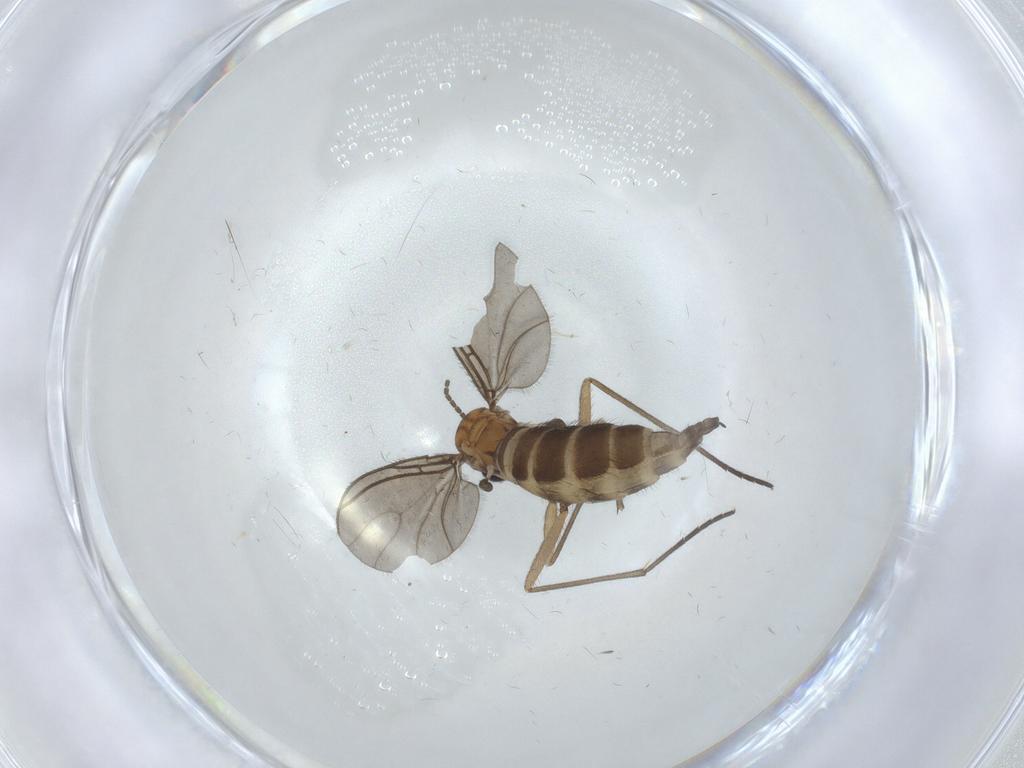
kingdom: Animalia
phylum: Arthropoda
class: Insecta
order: Diptera
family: Sciaridae
